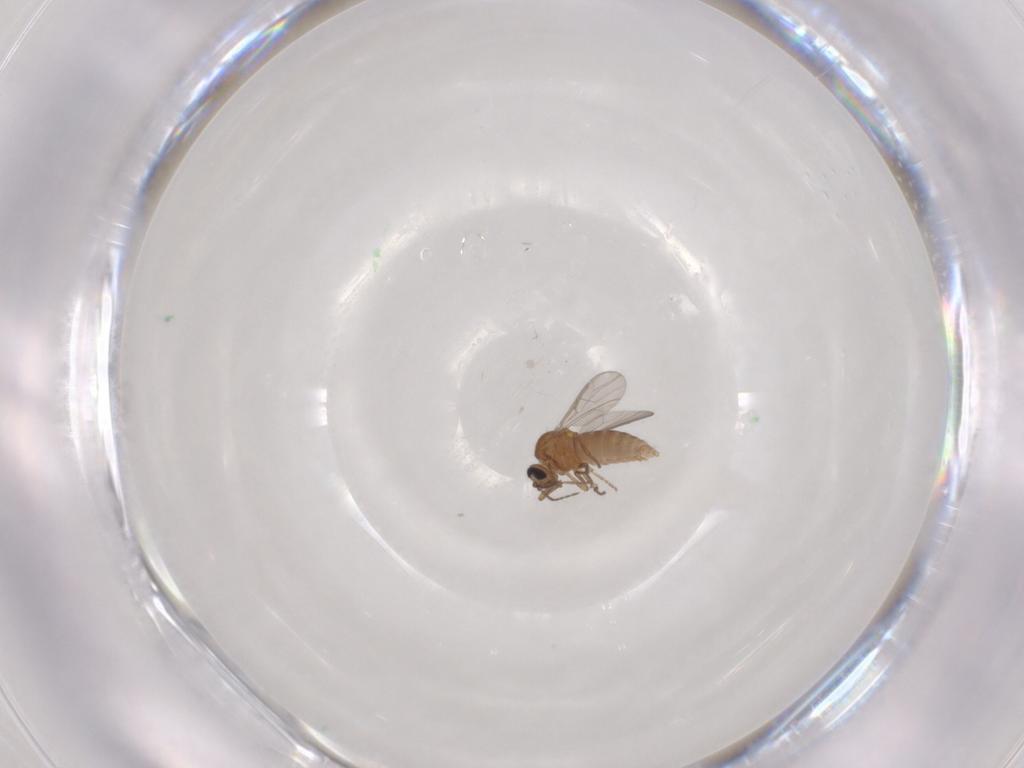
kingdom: Animalia
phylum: Arthropoda
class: Insecta
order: Diptera
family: Ceratopogonidae
